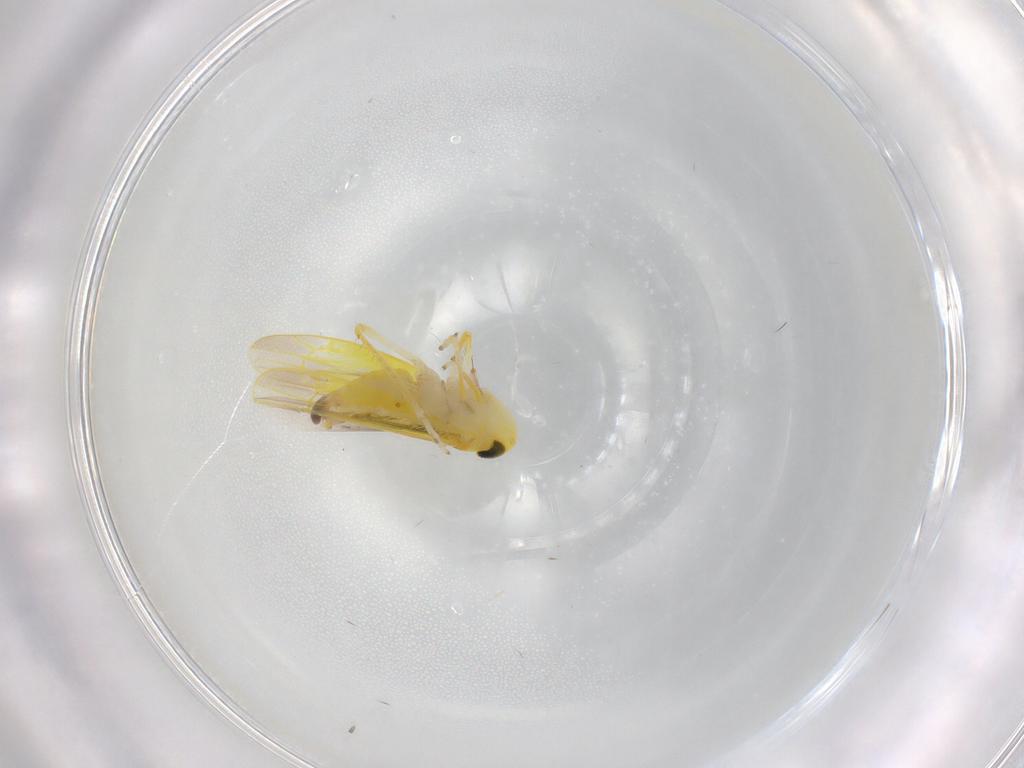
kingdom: Animalia
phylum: Arthropoda
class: Insecta
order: Hemiptera
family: Cicadellidae
